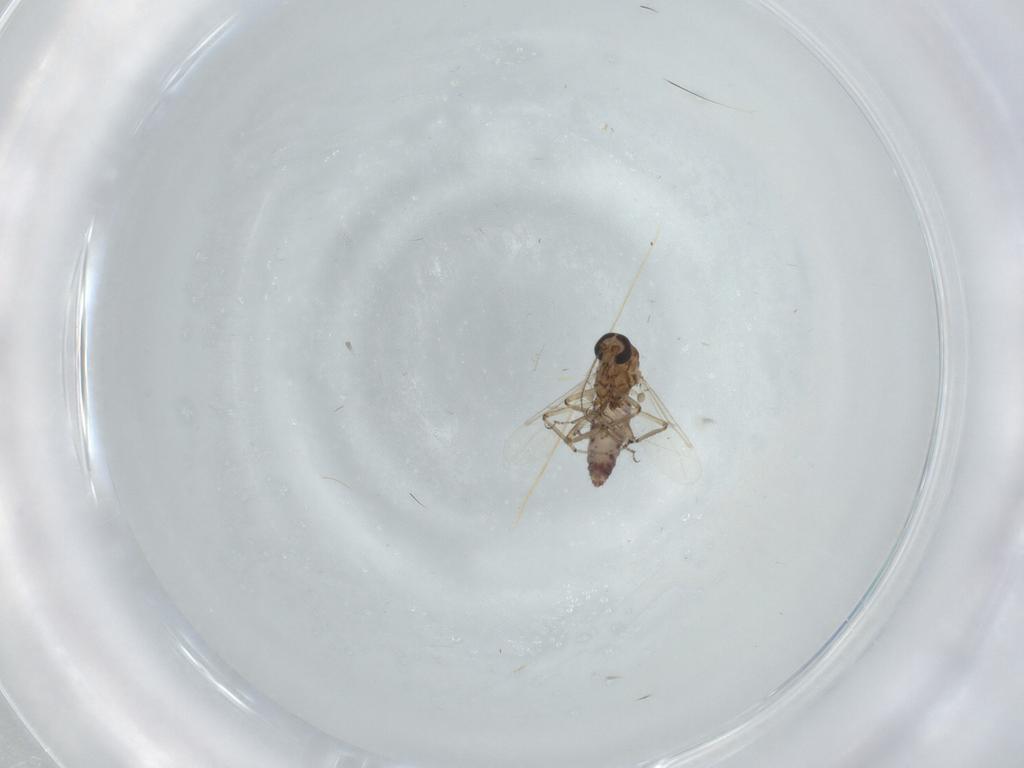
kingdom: Animalia
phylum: Arthropoda
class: Insecta
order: Diptera
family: Ceratopogonidae
